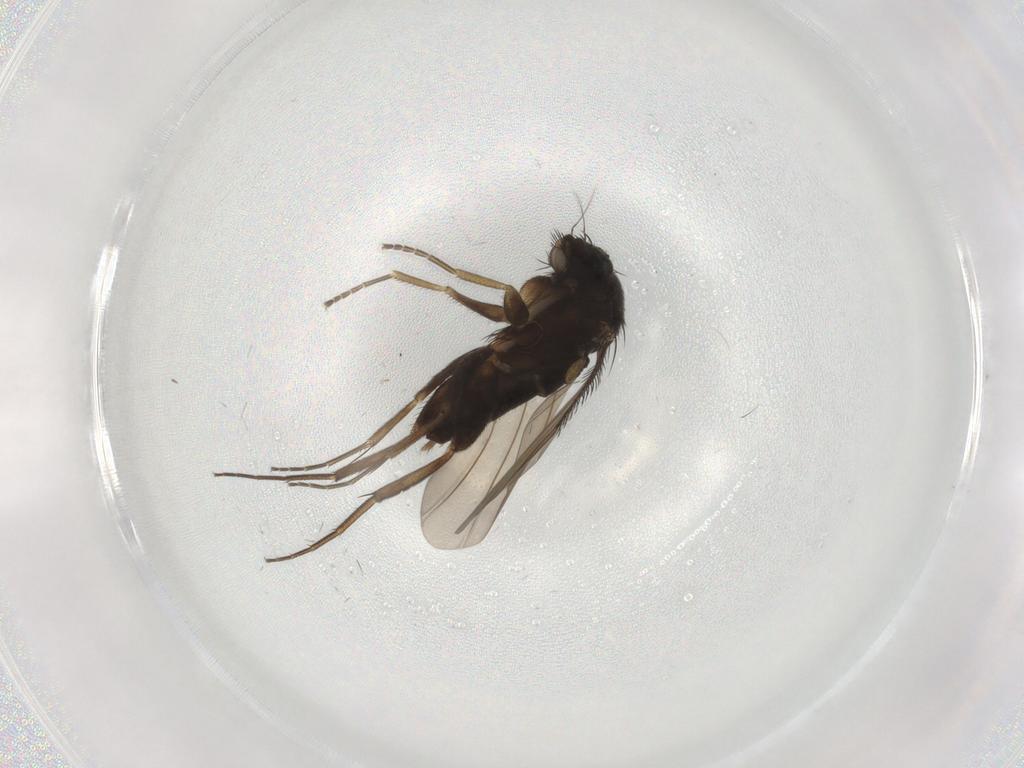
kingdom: Animalia
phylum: Arthropoda
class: Insecta
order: Diptera
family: Phoridae
